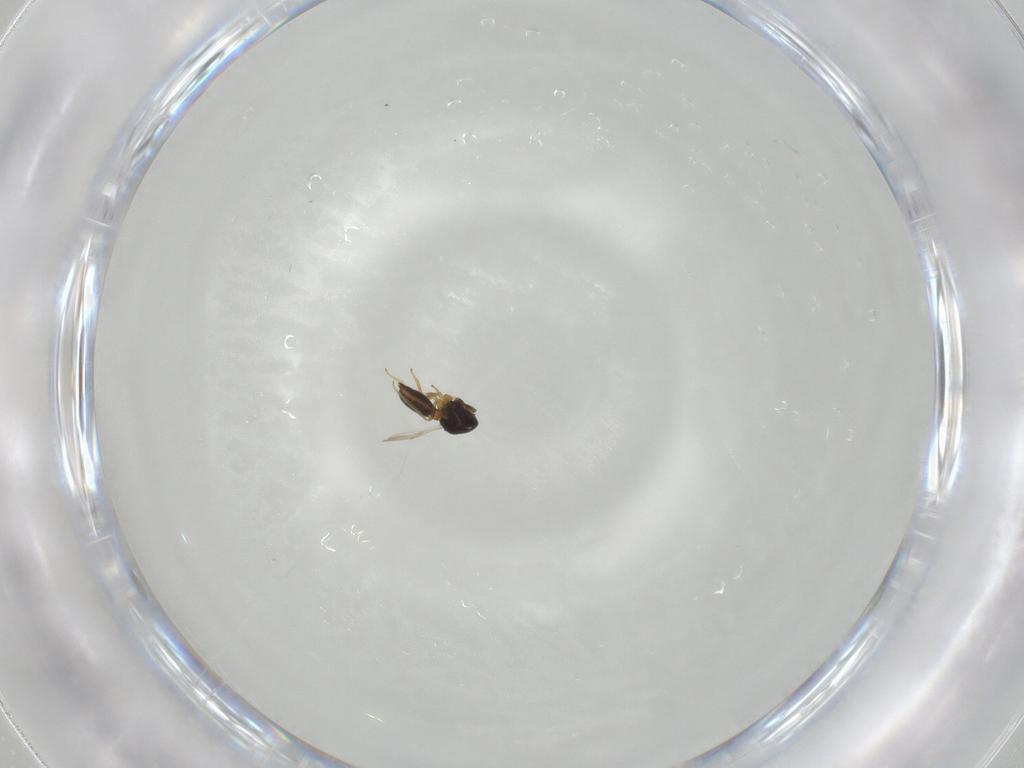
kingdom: Animalia
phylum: Arthropoda
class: Insecta
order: Hymenoptera
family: Scelionidae
